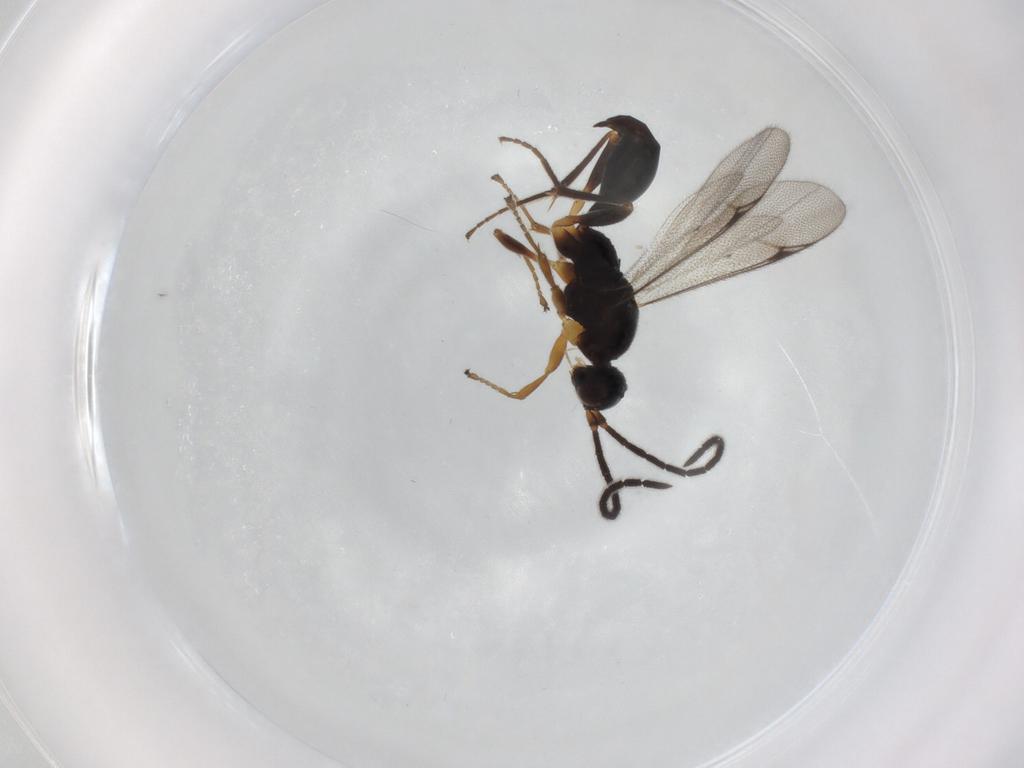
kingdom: Animalia
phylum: Arthropoda
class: Insecta
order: Hymenoptera
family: Proctotrupidae
